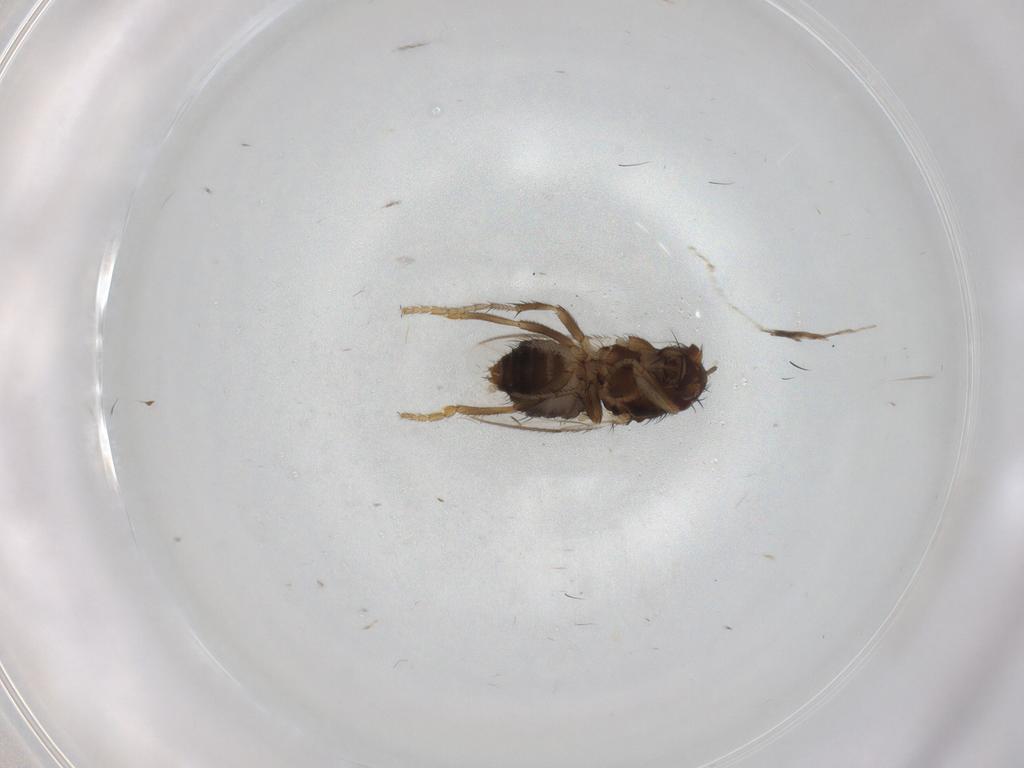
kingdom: Animalia
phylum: Arthropoda
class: Insecta
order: Diptera
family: Limoniidae
